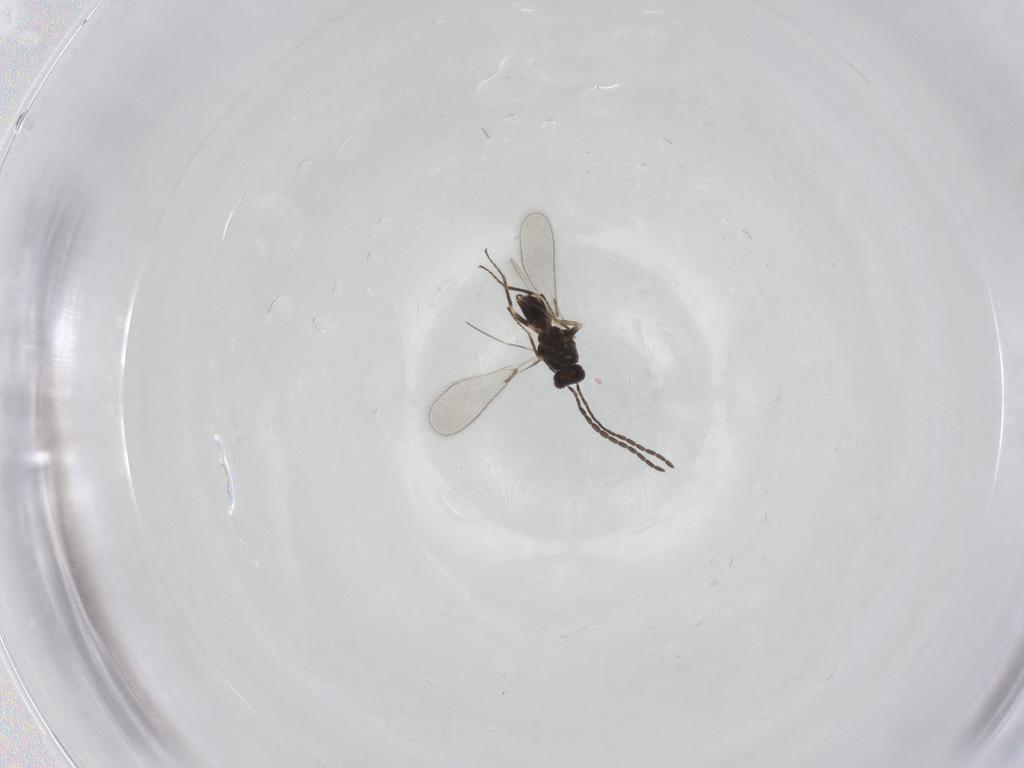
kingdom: Animalia
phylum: Arthropoda
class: Insecta
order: Hymenoptera
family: Mymaridae
